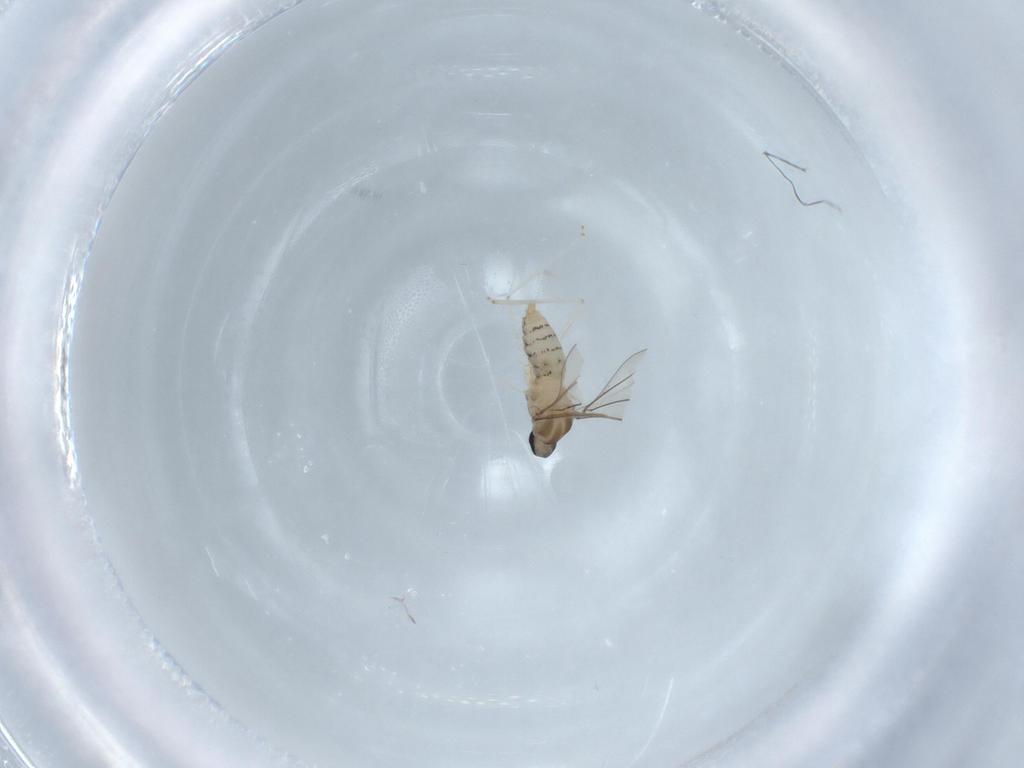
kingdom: Animalia
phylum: Arthropoda
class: Insecta
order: Diptera
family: Cecidomyiidae
